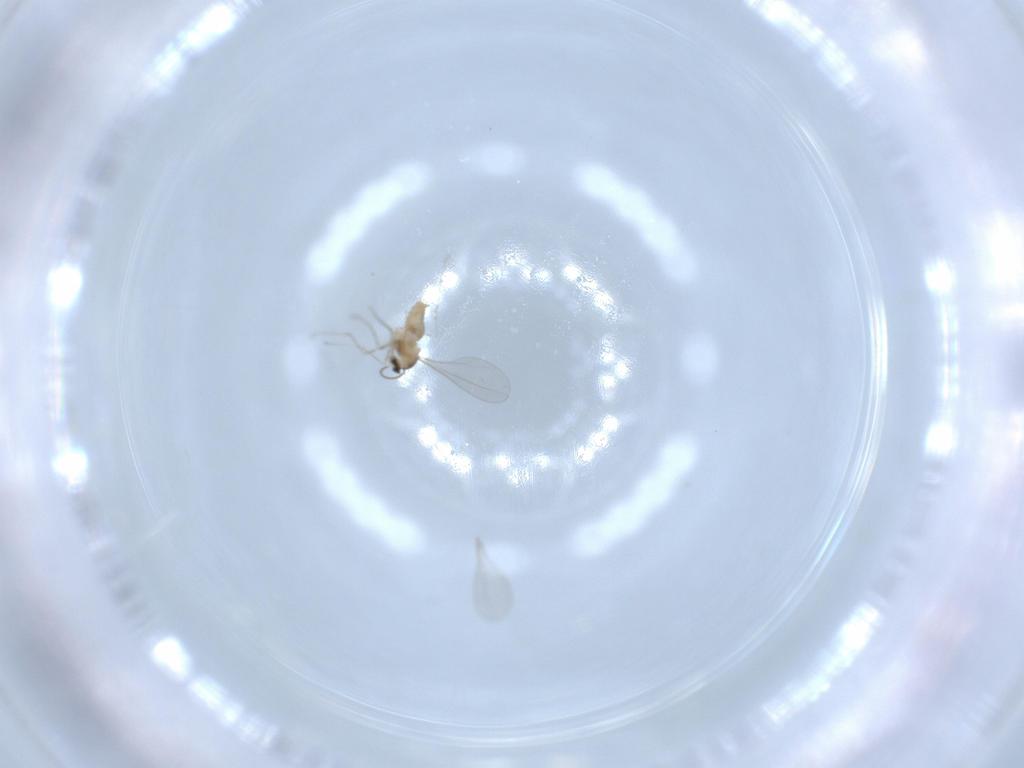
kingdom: Animalia
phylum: Arthropoda
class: Insecta
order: Diptera
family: Cecidomyiidae
